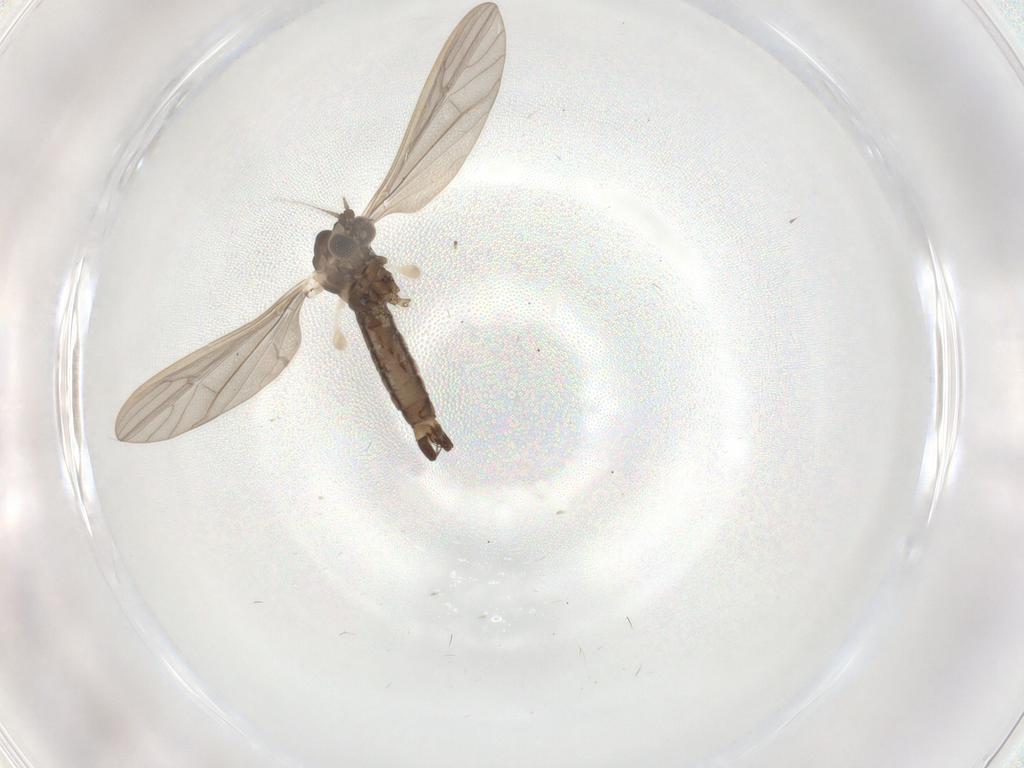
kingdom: Animalia
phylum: Arthropoda
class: Insecta
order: Diptera
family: Cecidomyiidae
